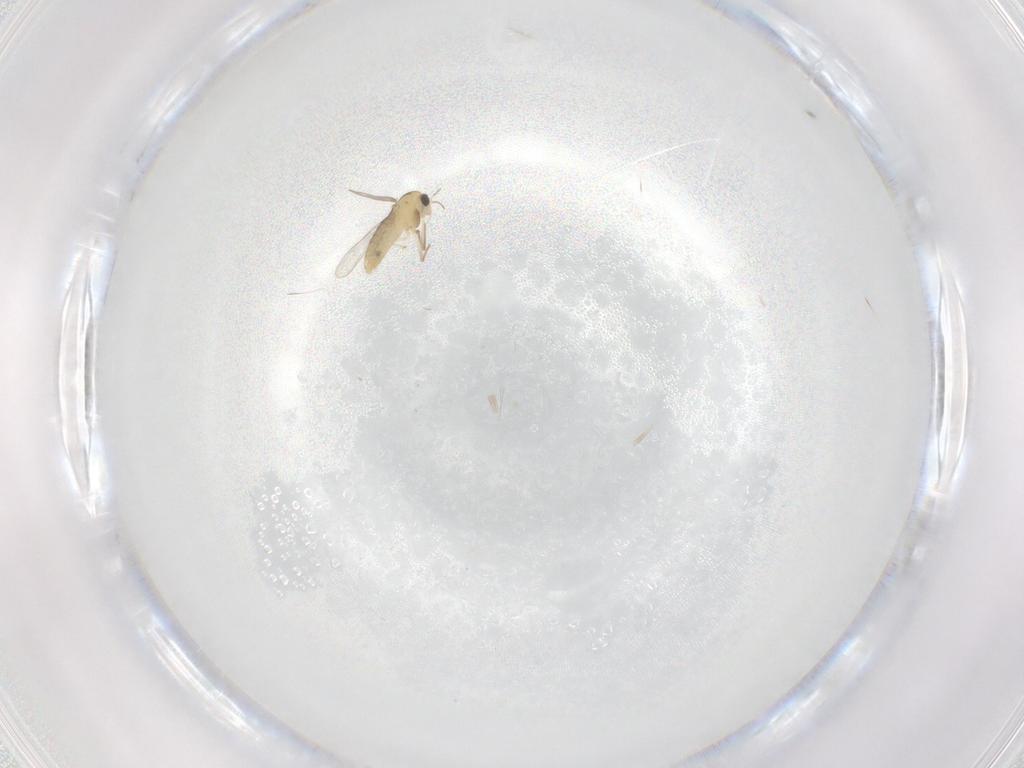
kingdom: Animalia
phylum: Arthropoda
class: Insecta
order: Diptera
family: Chironomidae
